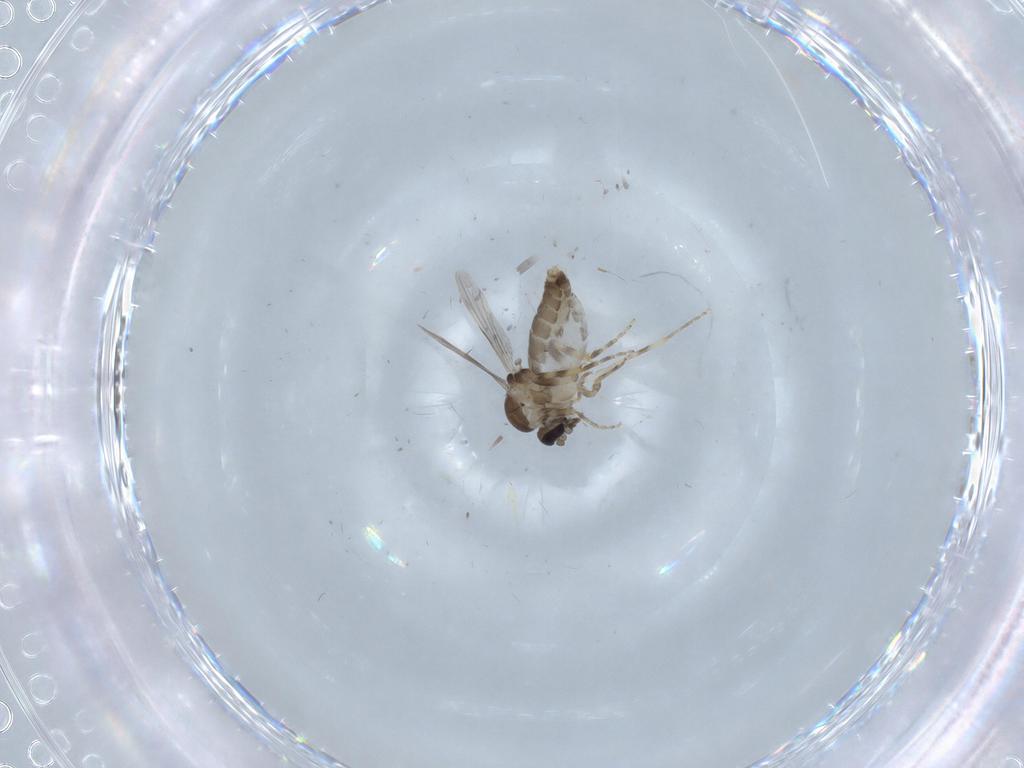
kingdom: Animalia
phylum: Arthropoda
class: Insecta
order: Diptera
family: Ceratopogonidae
